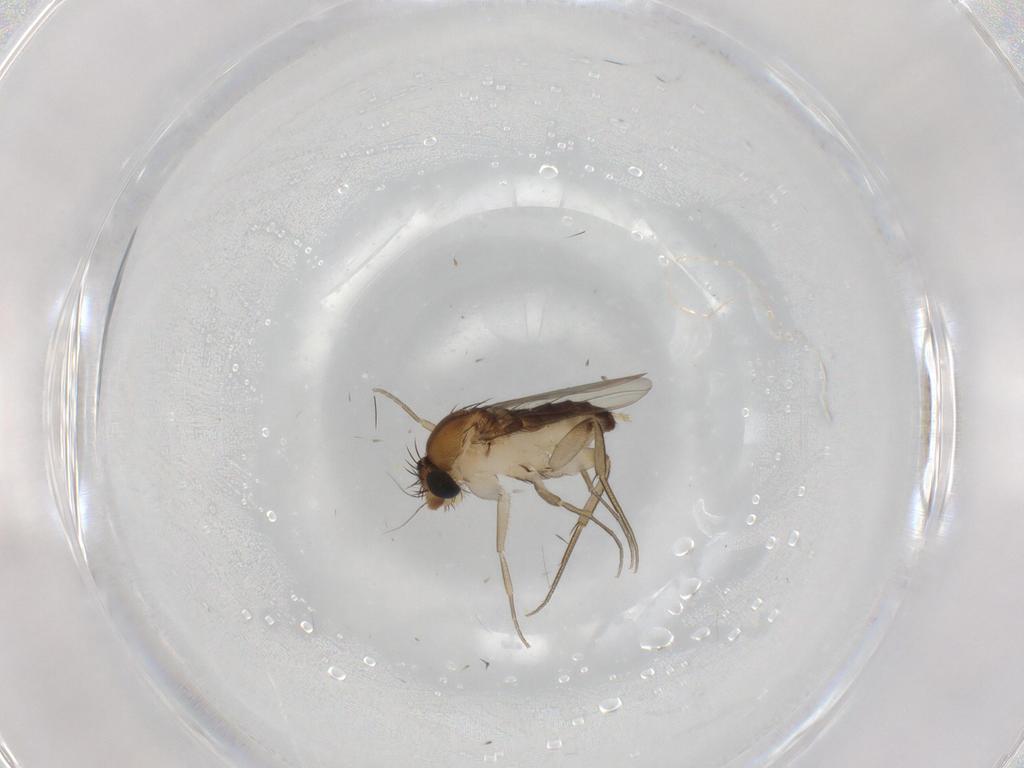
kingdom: Animalia
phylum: Arthropoda
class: Insecta
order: Diptera
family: Phoridae
